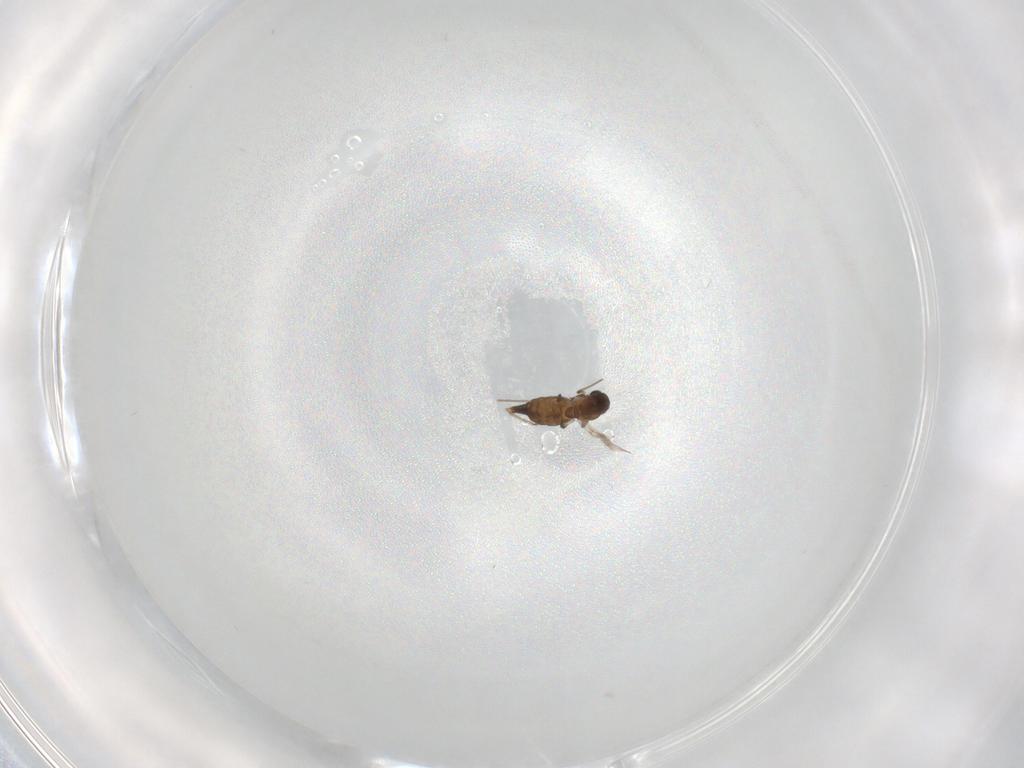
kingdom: Animalia
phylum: Arthropoda
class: Insecta
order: Diptera
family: Chironomidae
